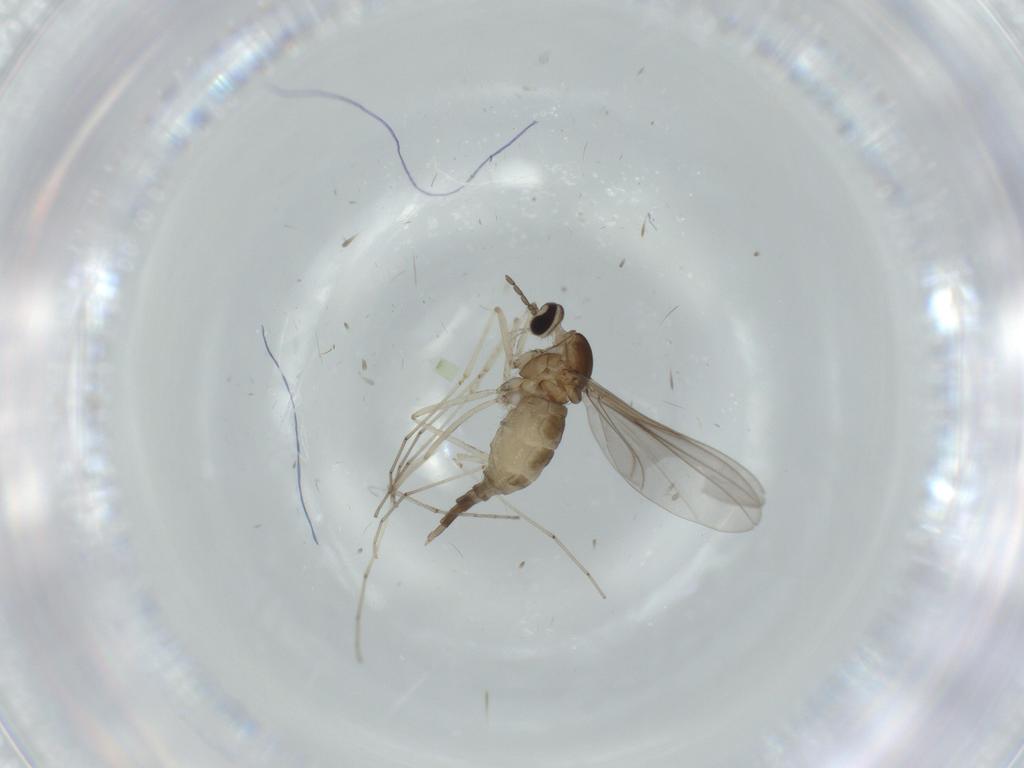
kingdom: Animalia
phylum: Arthropoda
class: Insecta
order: Diptera
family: Chironomidae
